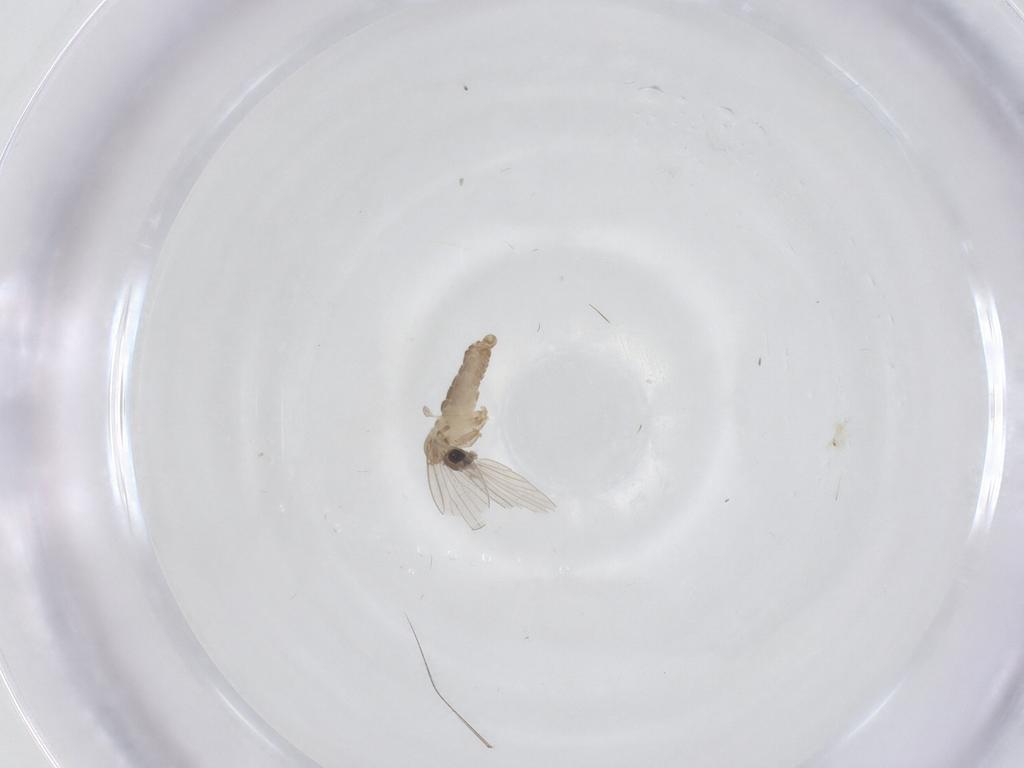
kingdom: Animalia
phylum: Arthropoda
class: Insecta
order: Diptera
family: Psychodidae
